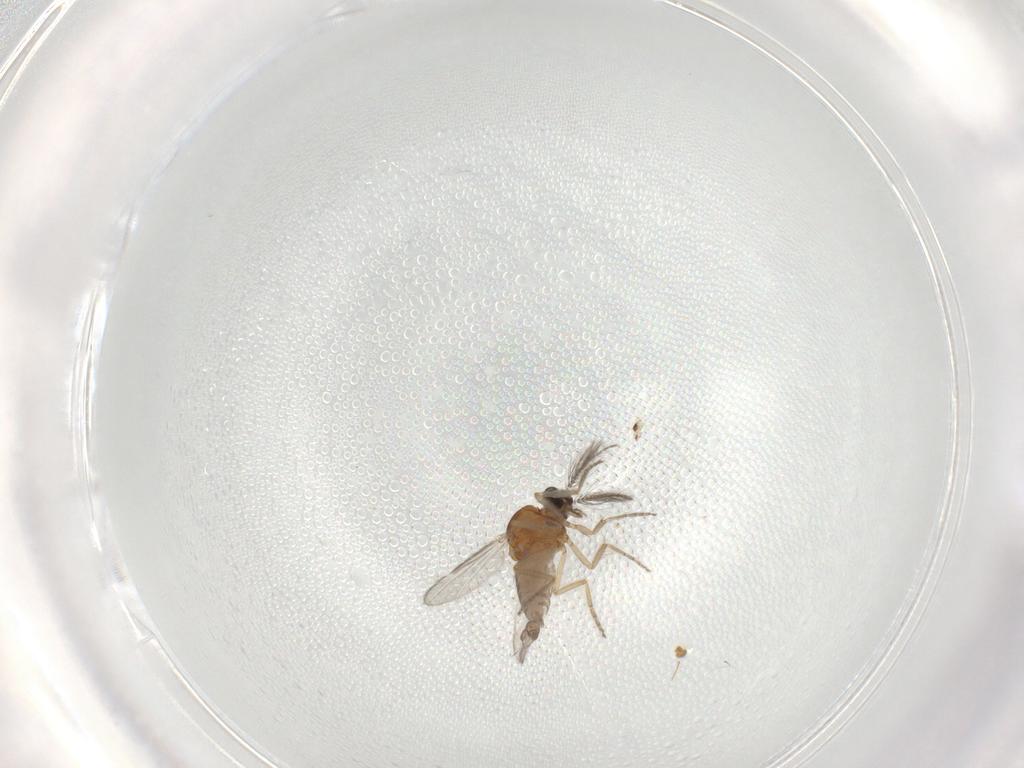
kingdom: Animalia
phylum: Arthropoda
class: Insecta
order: Diptera
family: Ceratopogonidae
